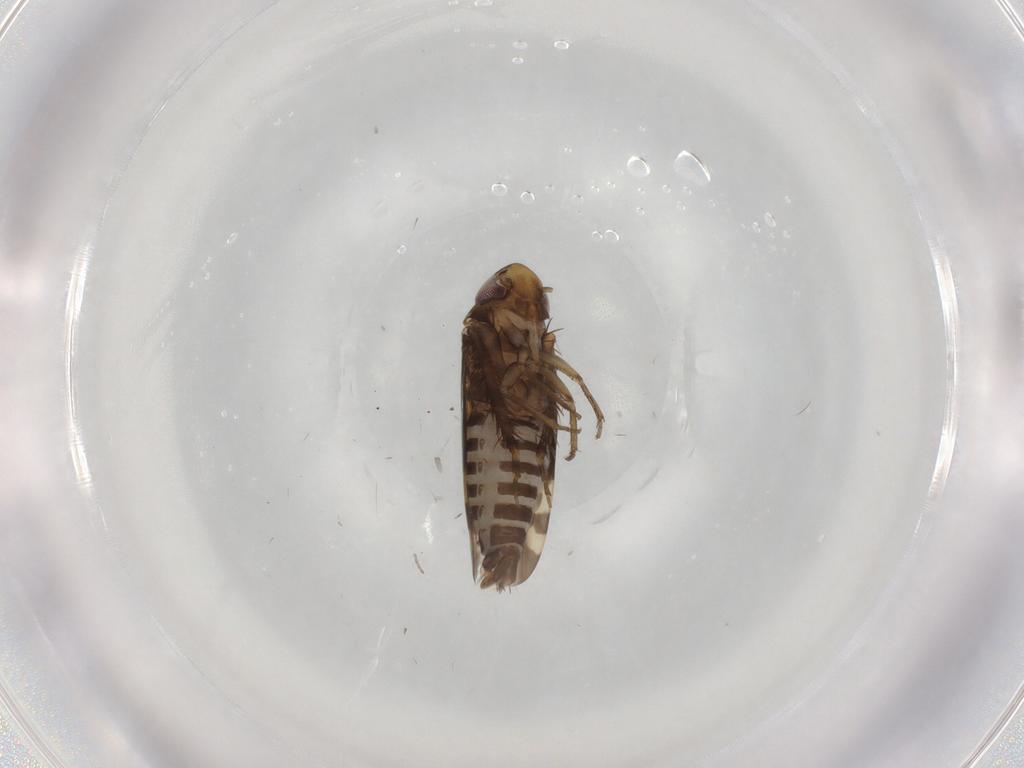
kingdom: Animalia
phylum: Arthropoda
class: Insecta
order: Hemiptera
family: Cicadellidae
